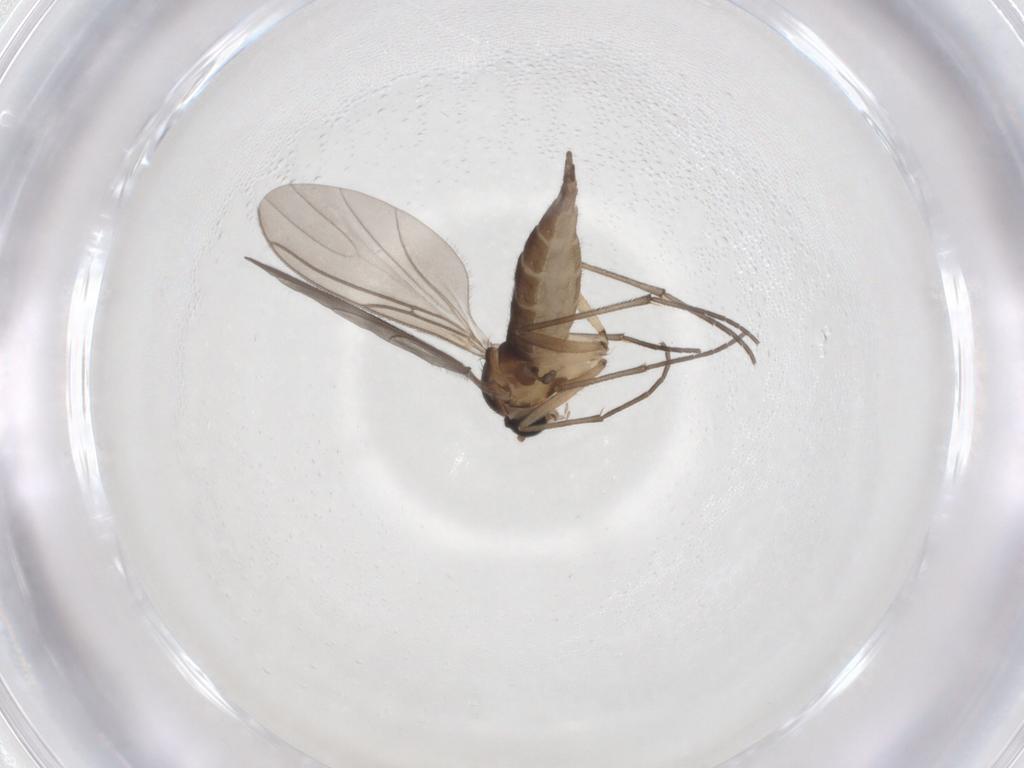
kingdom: Animalia
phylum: Arthropoda
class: Insecta
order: Diptera
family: Sciaridae
